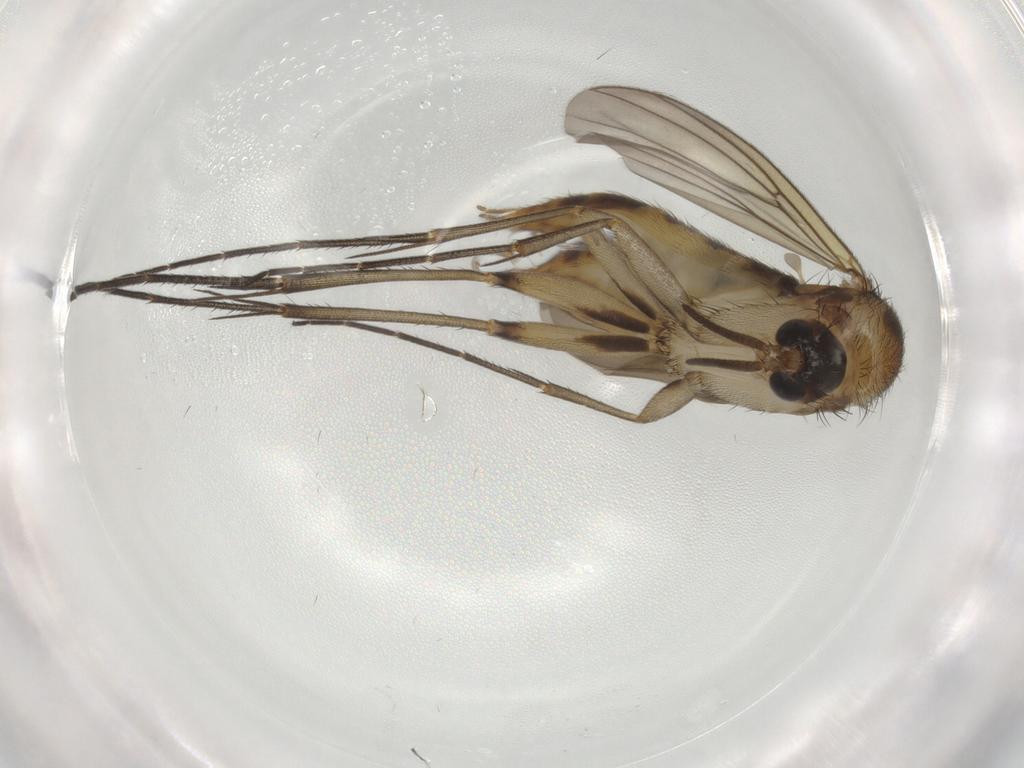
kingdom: Animalia
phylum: Arthropoda
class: Insecta
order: Diptera
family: Mycetophilidae
